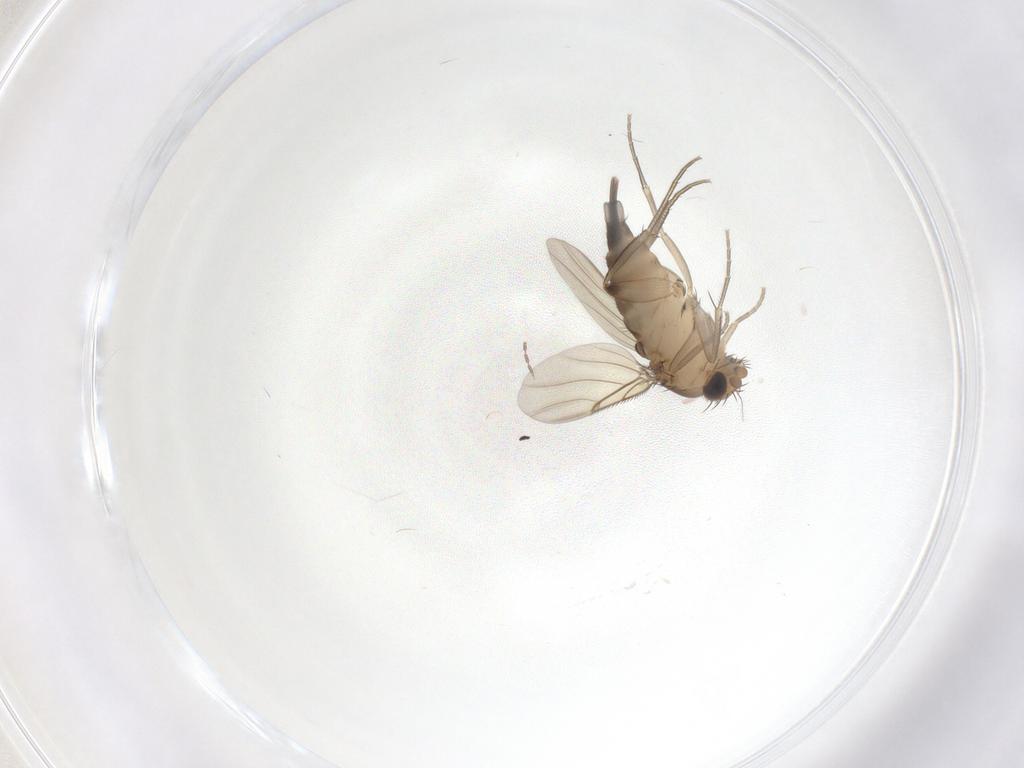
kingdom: Animalia
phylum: Arthropoda
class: Insecta
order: Diptera
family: Phoridae
